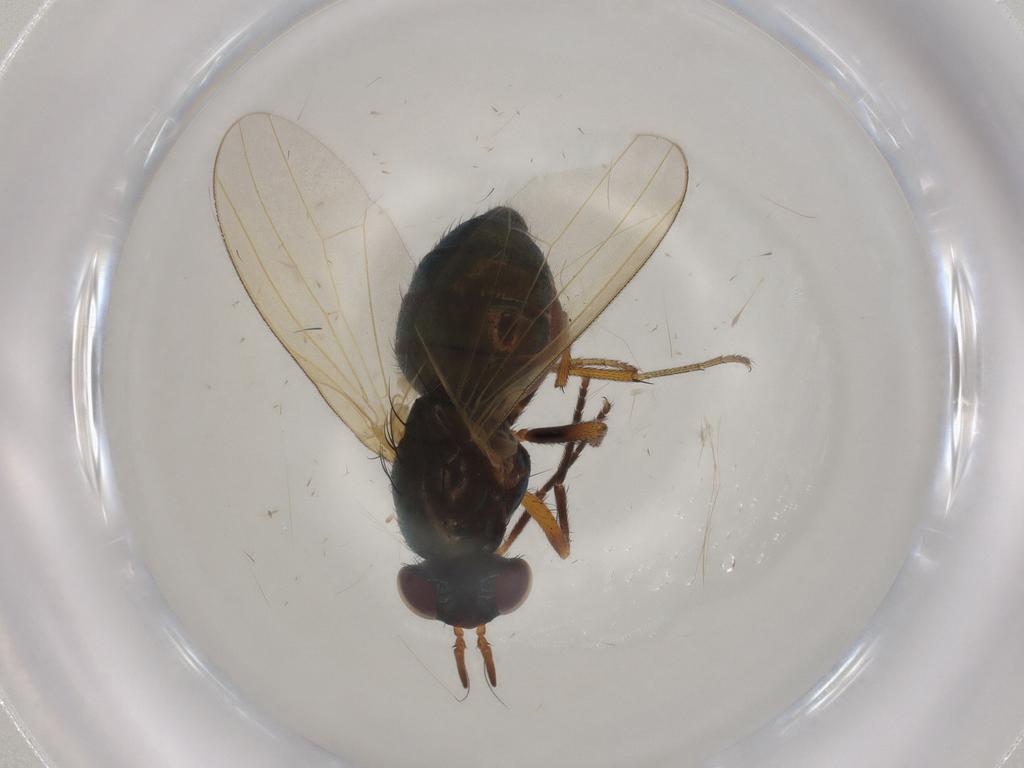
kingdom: Animalia
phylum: Arthropoda
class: Insecta
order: Diptera
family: Lauxaniidae
